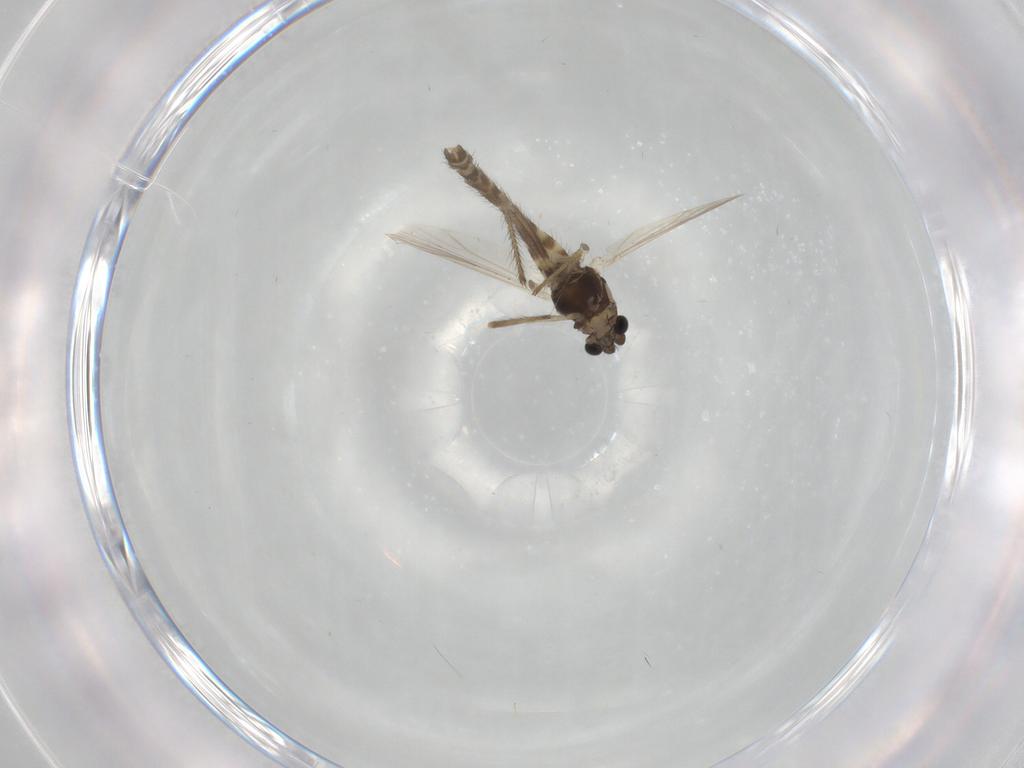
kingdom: Animalia
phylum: Arthropoda
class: Insecta
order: Diptera
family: Chironomidae
